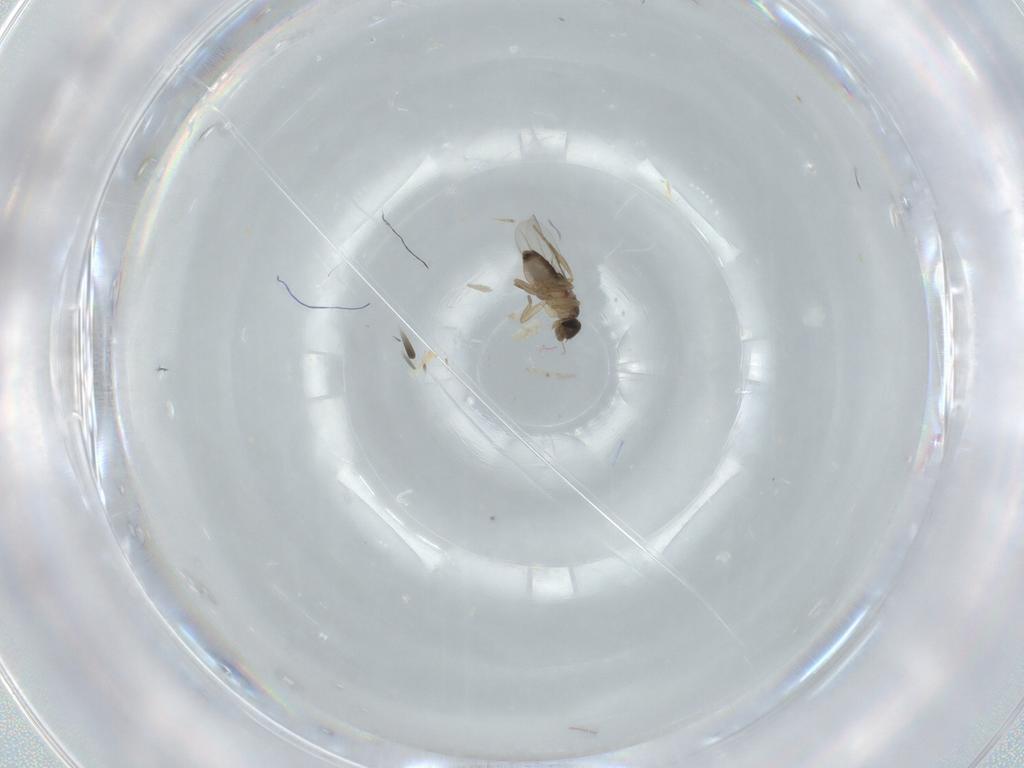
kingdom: Animalia
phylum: Arthropoda
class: Insecta
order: Diptera
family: Phoridae
